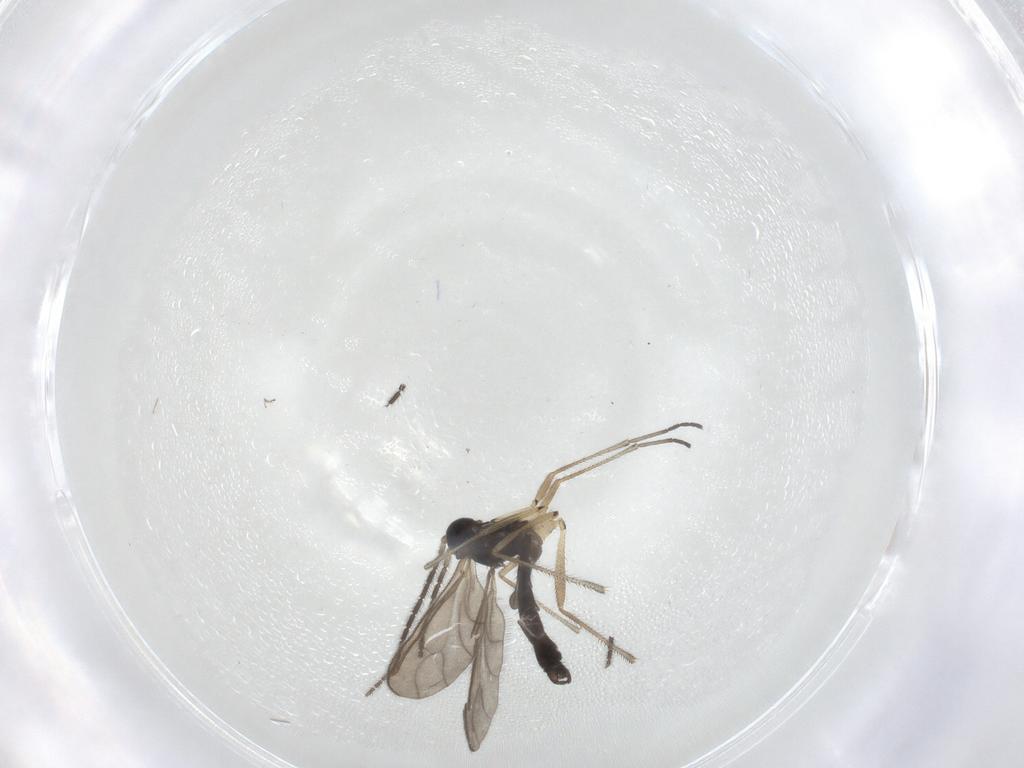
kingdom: Animalia
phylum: Arthropoda
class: Insecta
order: Diptera
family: Sciaridae
